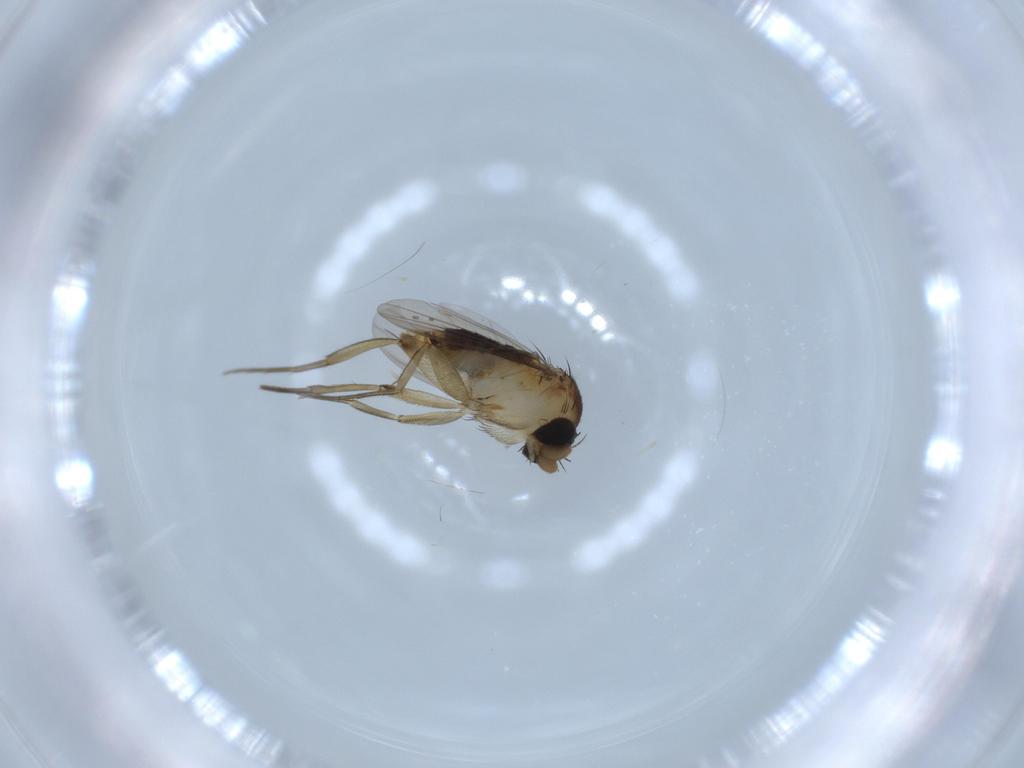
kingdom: Animalia
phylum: Arthropoda
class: Insecta
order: Diptera
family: Phoridae
